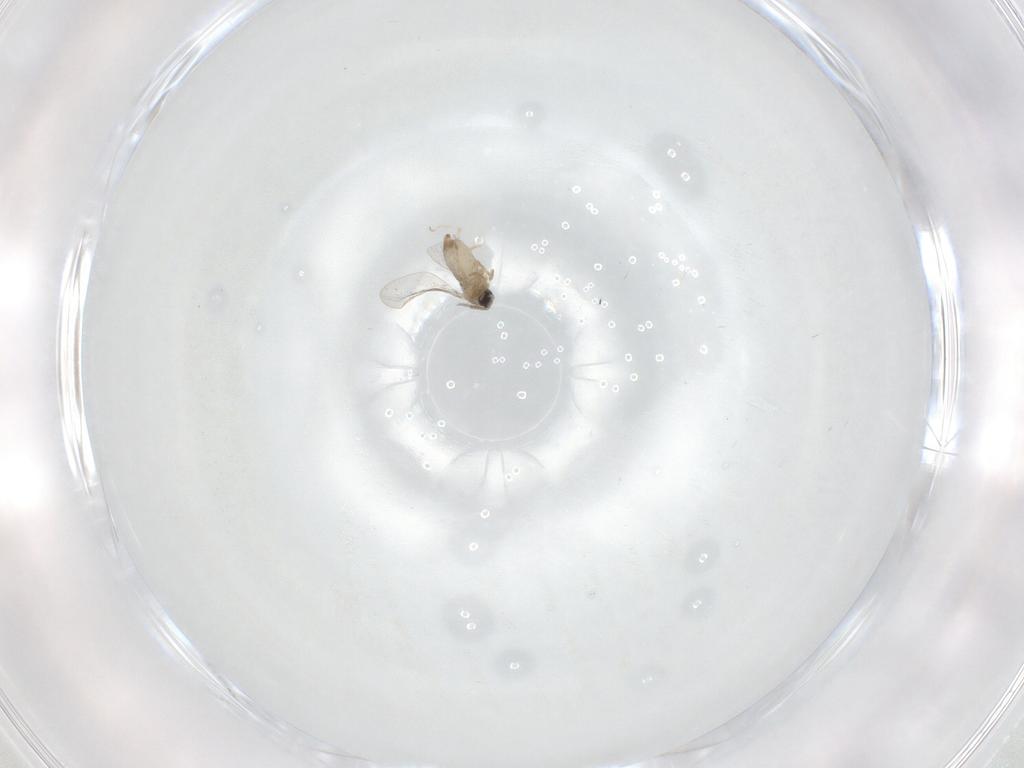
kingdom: Animalia
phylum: Arthropoda
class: Insecta
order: Diptera
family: Cecidomyiidae
